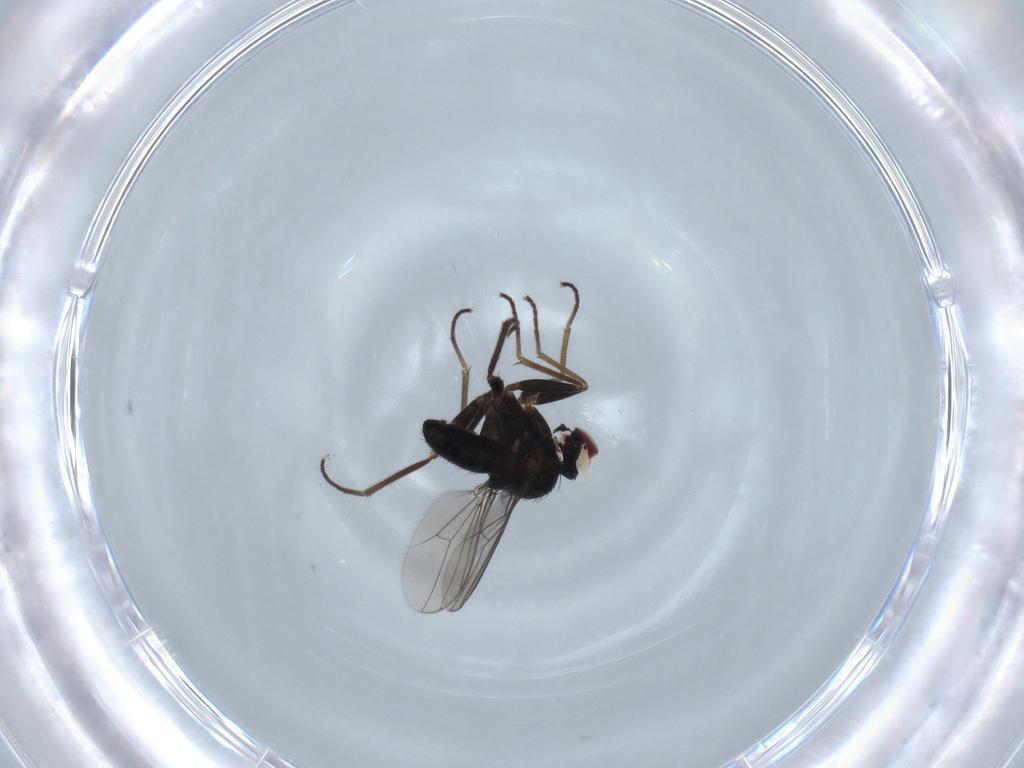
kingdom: Animalia
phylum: Arthropoda
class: Insecta
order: Diptera
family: Dolichopodidae
